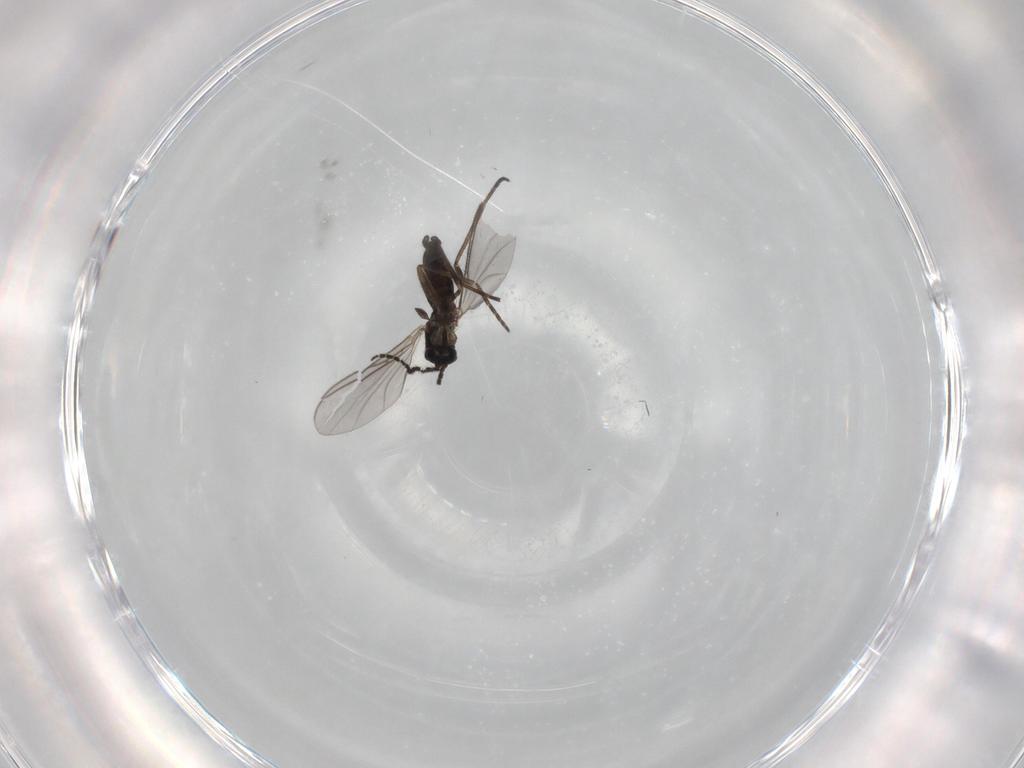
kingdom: Animalia
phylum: Arthropoda
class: Insecta
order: Diptera
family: Sciaridae
